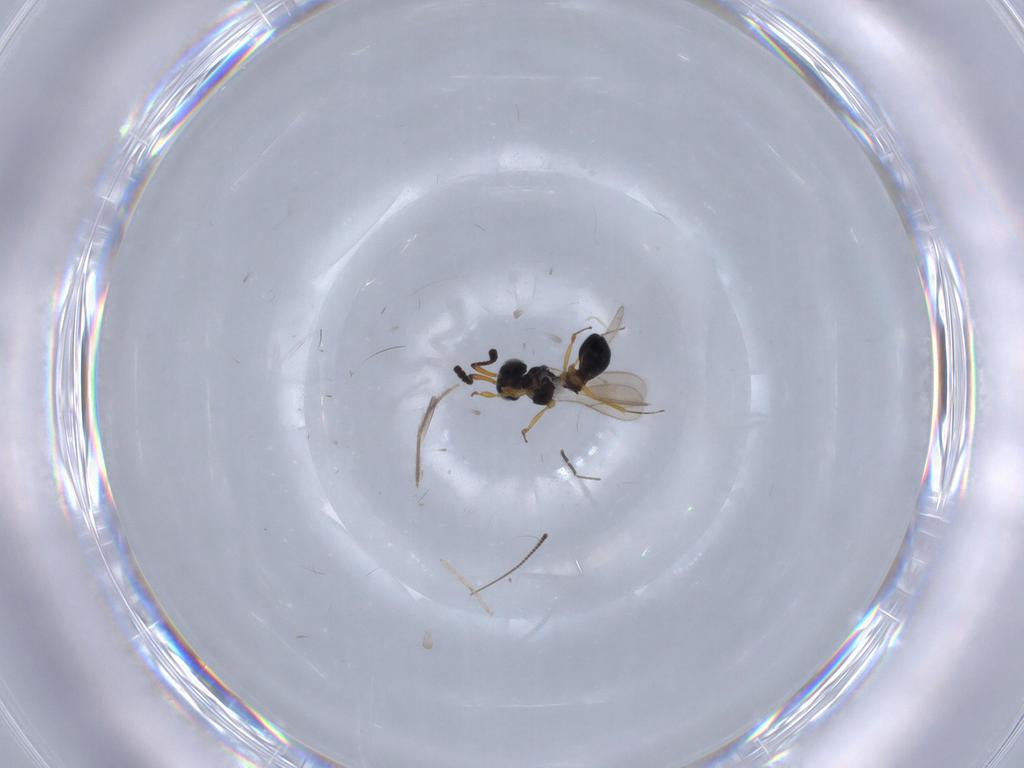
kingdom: Animalia
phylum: Arthropoda
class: Insecta
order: Hymenoptera
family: Scelionidae
